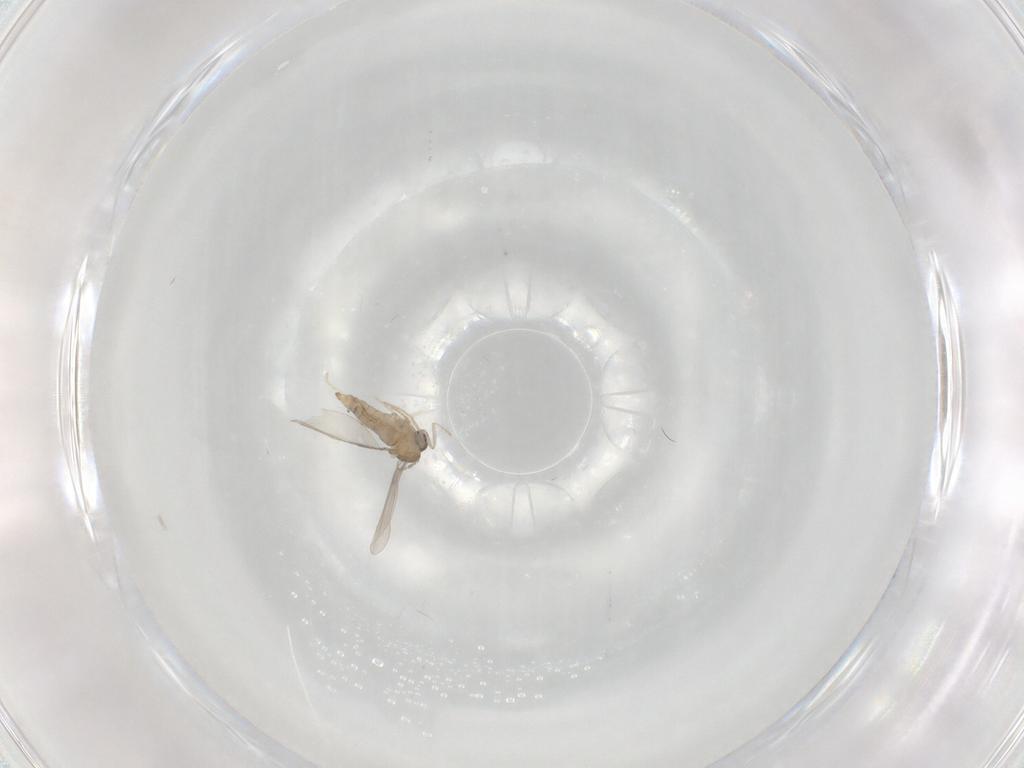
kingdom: Animalia
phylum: Arthropoda
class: Insecta
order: Diptera
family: Cecidomyiidae
